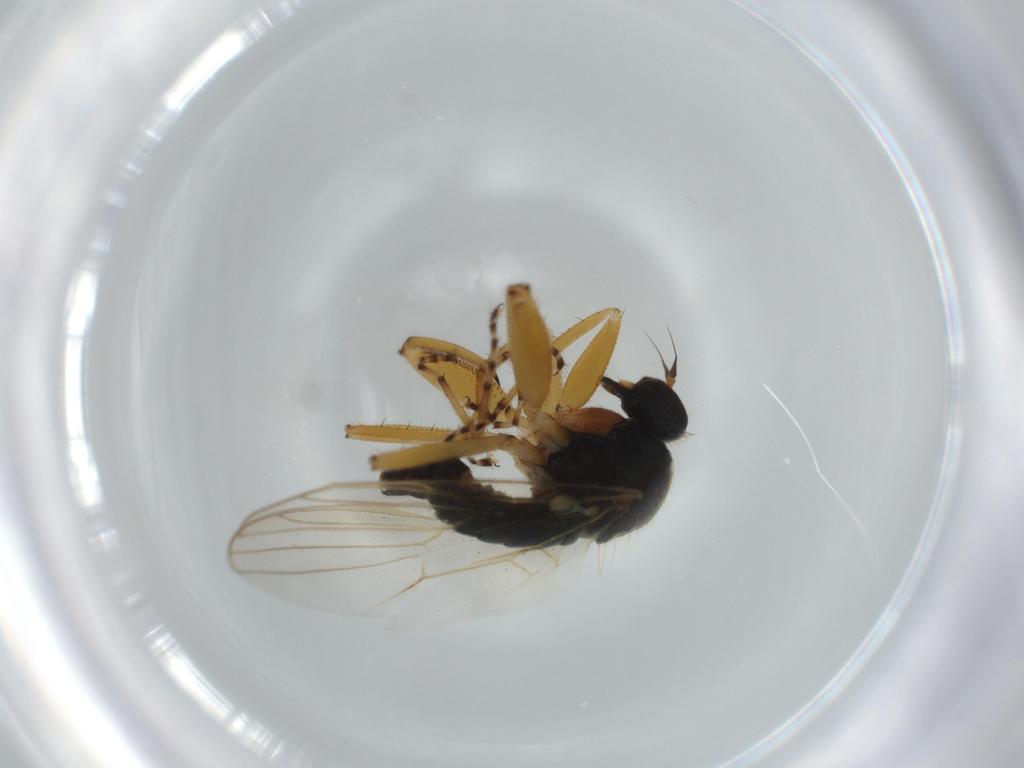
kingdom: Animalia
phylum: Arthropoda
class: Insecta
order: Diptera
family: Hybotidae
